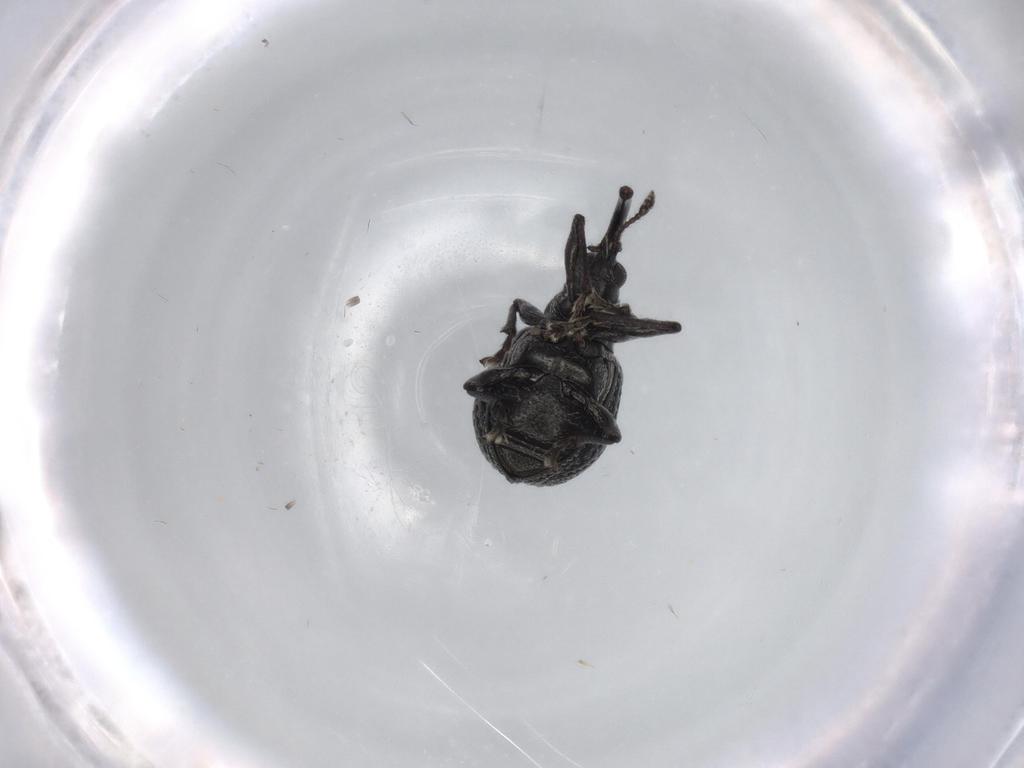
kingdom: Animalia
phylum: Arthropoda
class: Insecta
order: Coleoptera
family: Brentidae
